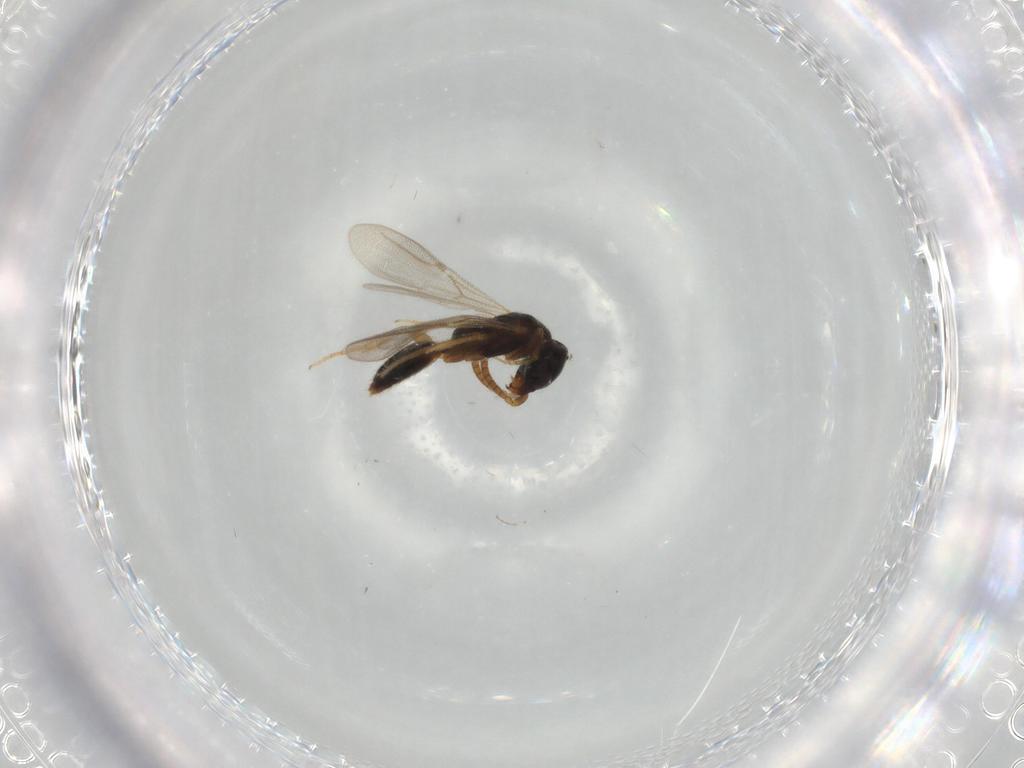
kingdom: Animalia
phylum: Arthropoda
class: Insecta
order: Hymenoptera
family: Bethylidae
